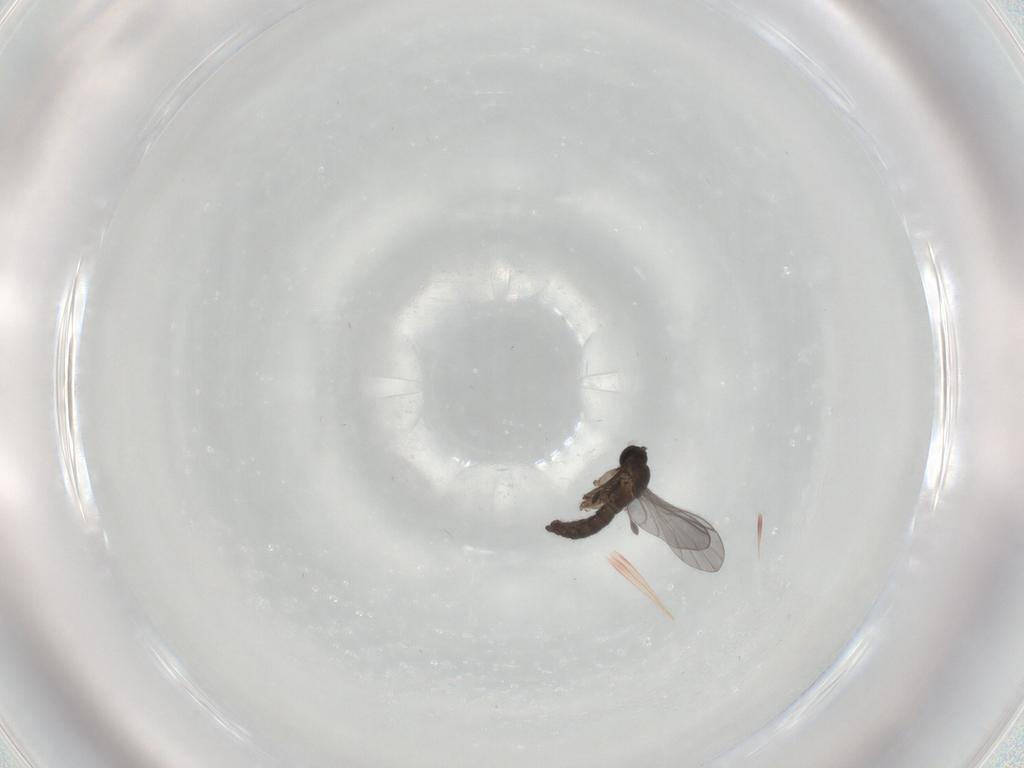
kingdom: Animalia
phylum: Arthropoda
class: Insecta
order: Diptera
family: Sciaridae
